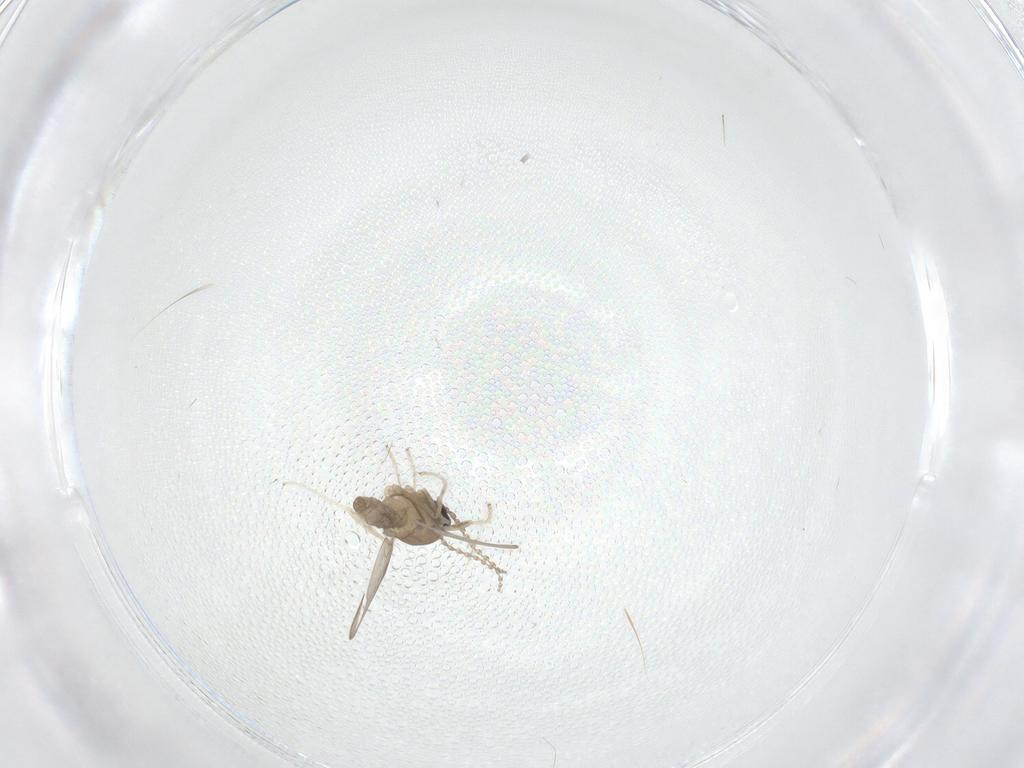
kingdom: Animalia
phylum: Arthropoda
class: Insecta
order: Diptera
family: Cecidomyiidae
